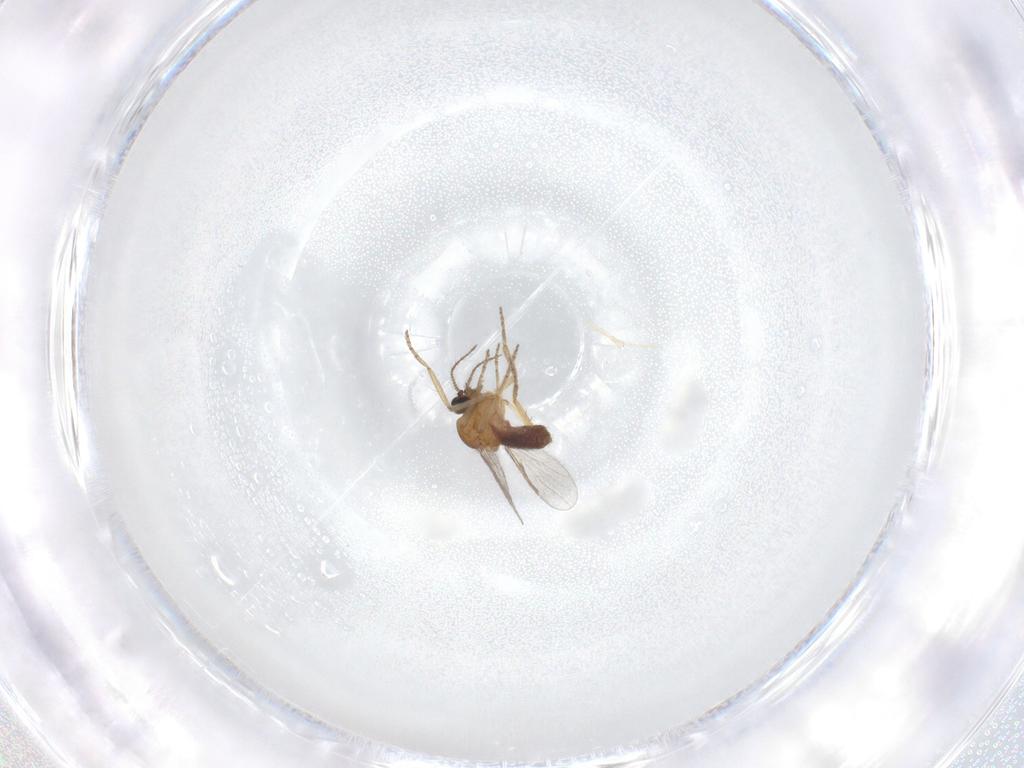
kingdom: Animalia
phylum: Arthropoda
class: Insecta
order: Diptera
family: Ceratopogonidae
